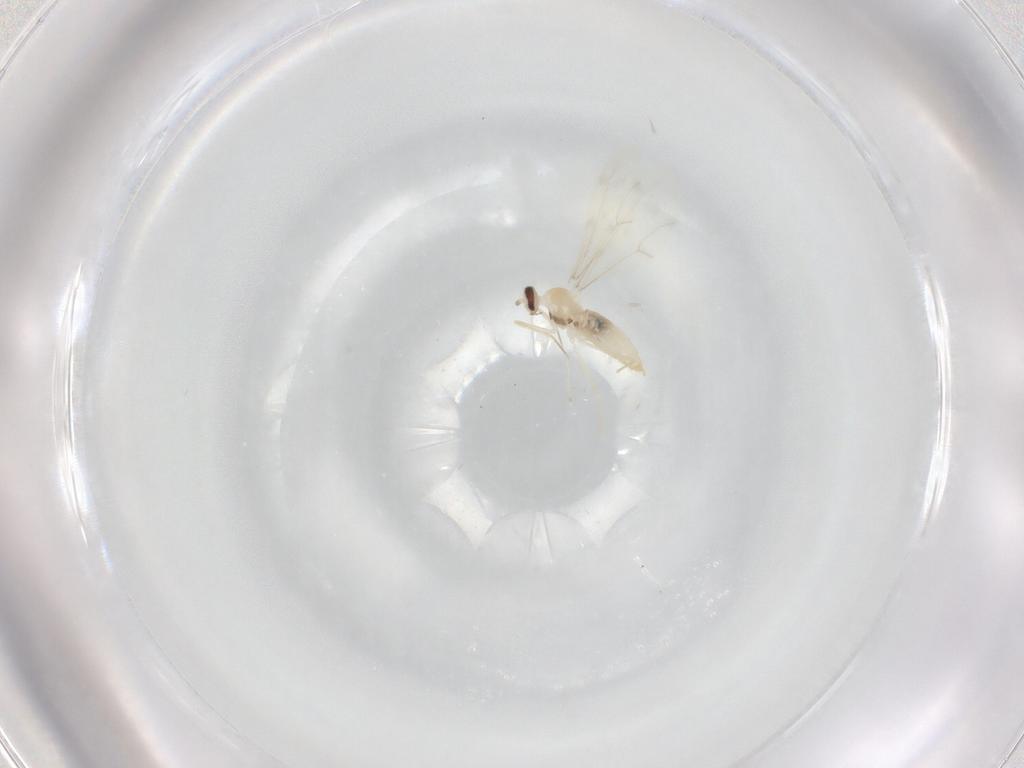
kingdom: Animalia
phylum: Arthropoda
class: Insecta
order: Diptera
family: Cecidomyiidae
